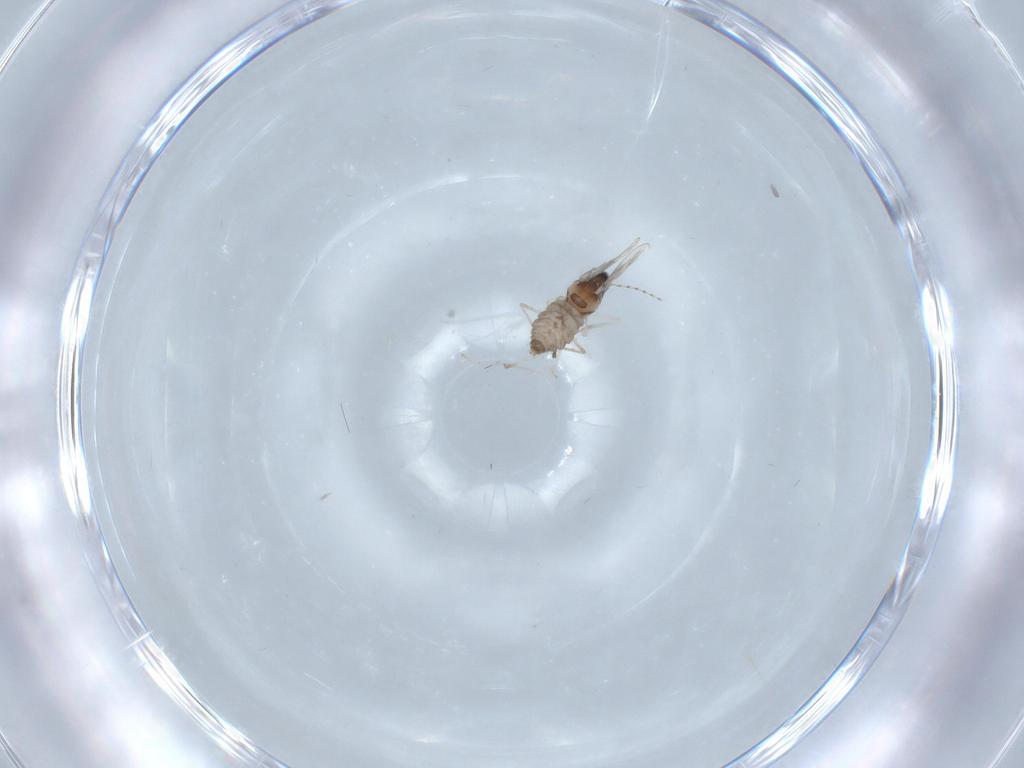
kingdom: Animalia
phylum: Arthropoda
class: Insecta
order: Diptera
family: Cecidomyiidae
